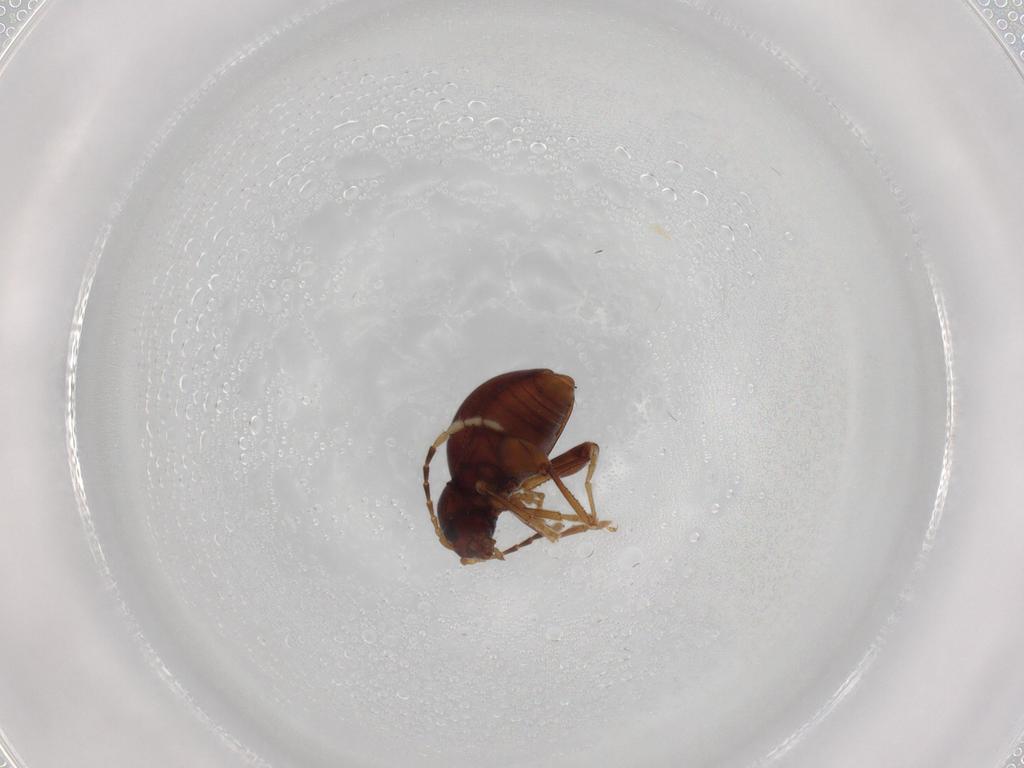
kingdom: Animalia
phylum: Arthropoda
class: Insecta
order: Coleoptera
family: Chrysomelidae
